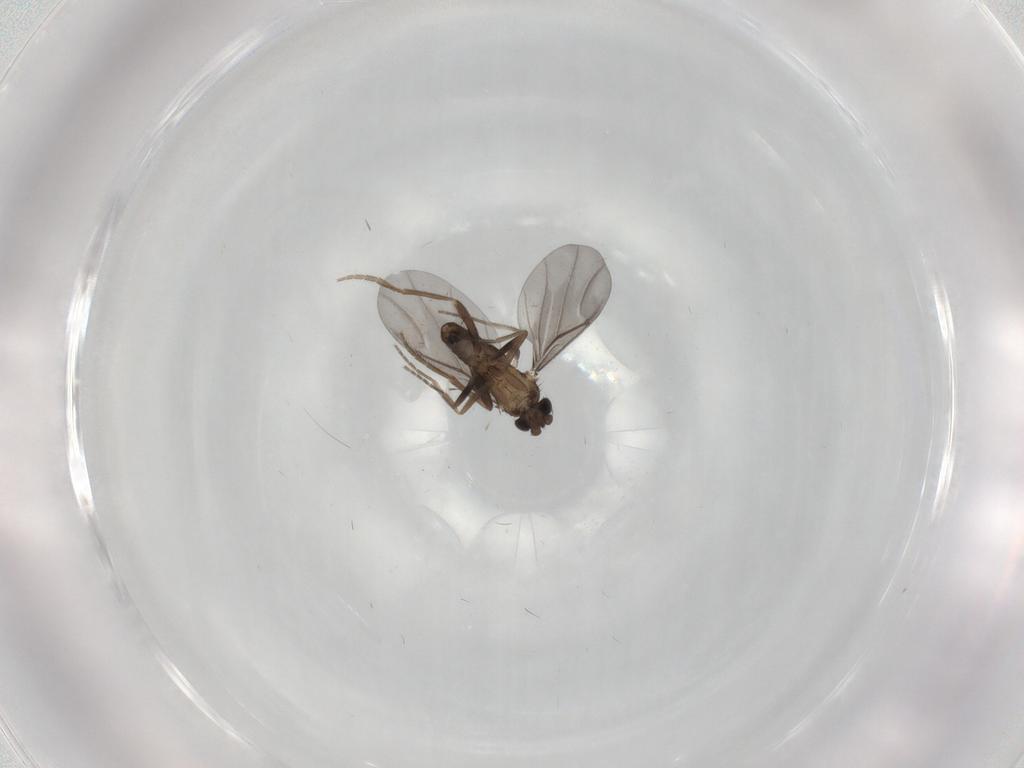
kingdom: Animalia
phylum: Arthropoda
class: Insecta
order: Diptera
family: Phoridae
